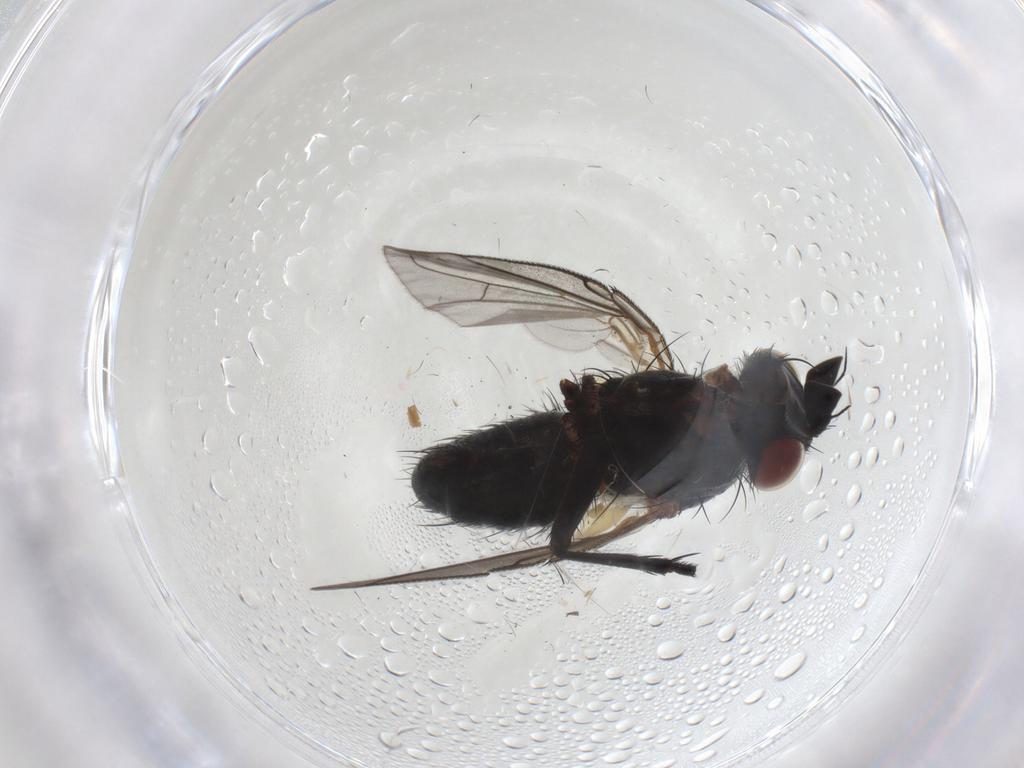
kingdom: Animalia
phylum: Arthropoda
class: Insecta
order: Diptera
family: Tachinidae
